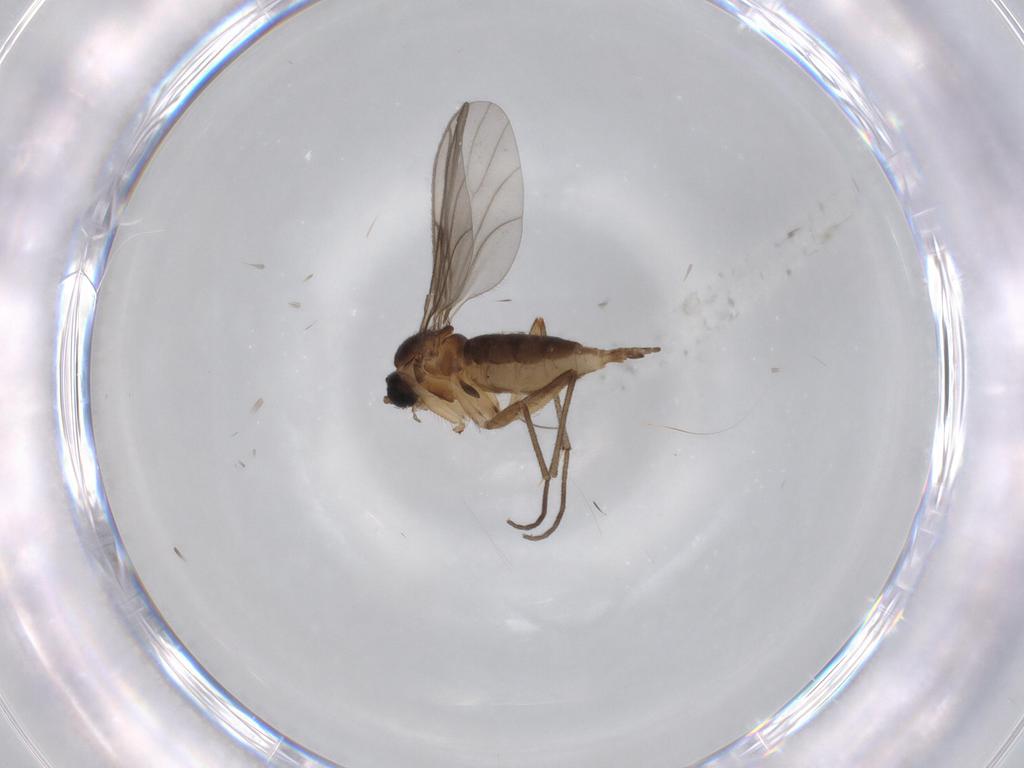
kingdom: Animalia
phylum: Arthropoda
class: Insecta
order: Diptera
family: Sciaridae
